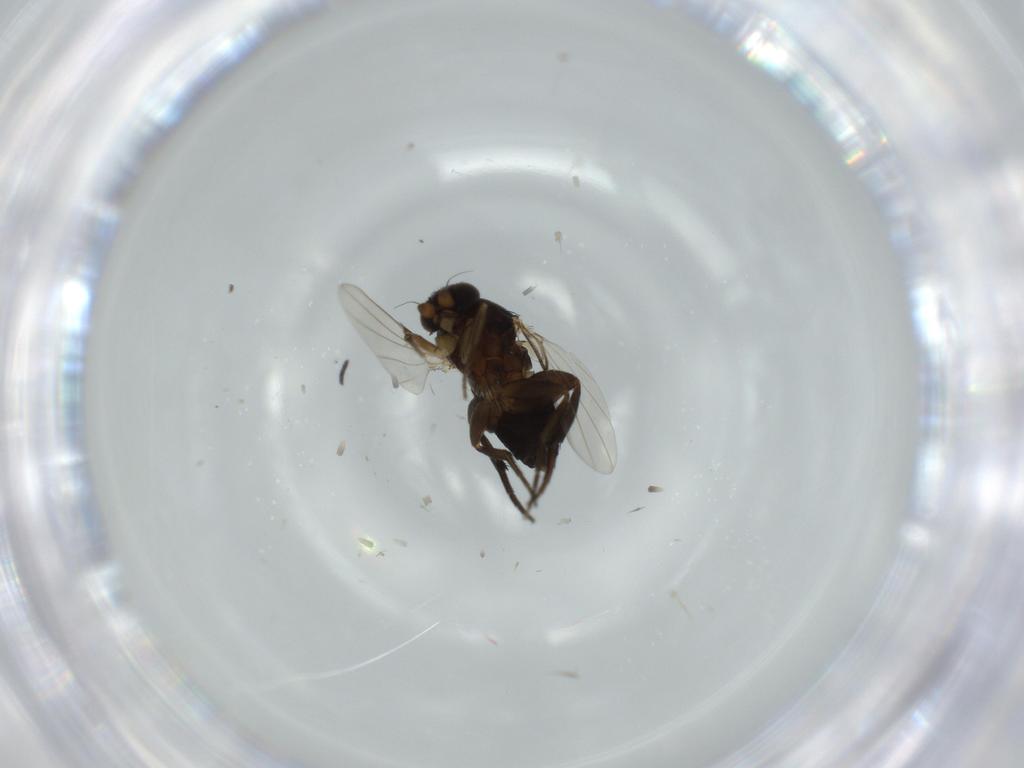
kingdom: Animalia
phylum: Arthropoda
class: Insecta
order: Diptera
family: Phoridae
